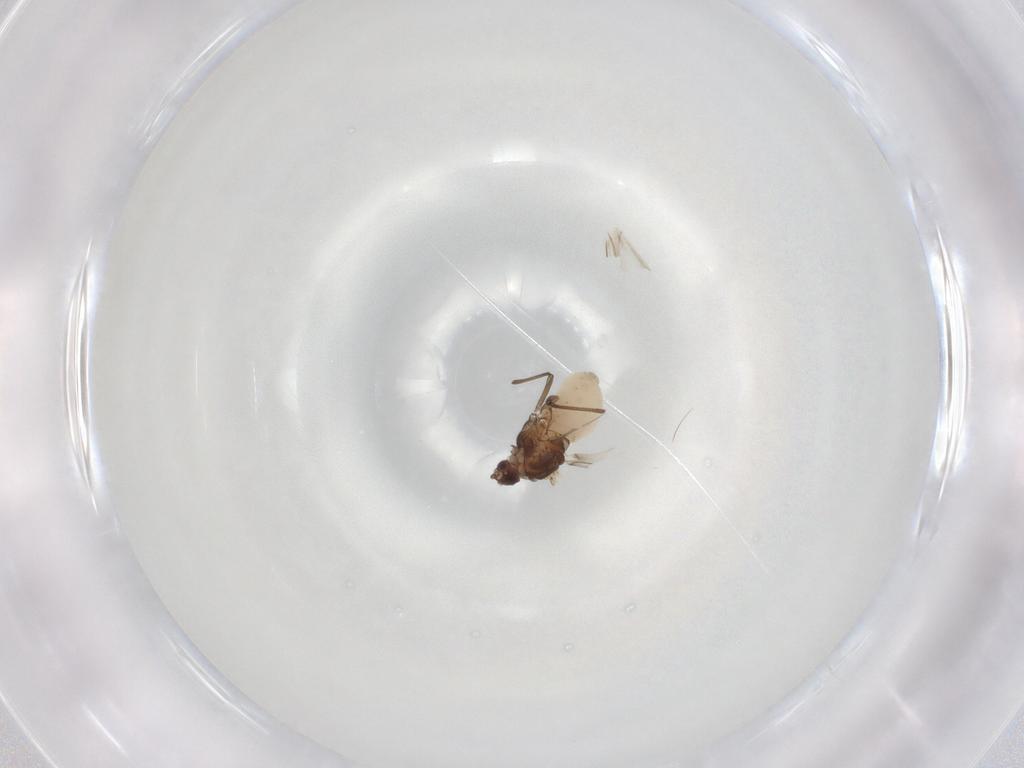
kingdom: Animalia
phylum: Arthropoda
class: Insecta
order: Hemiptera
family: Aphididae
